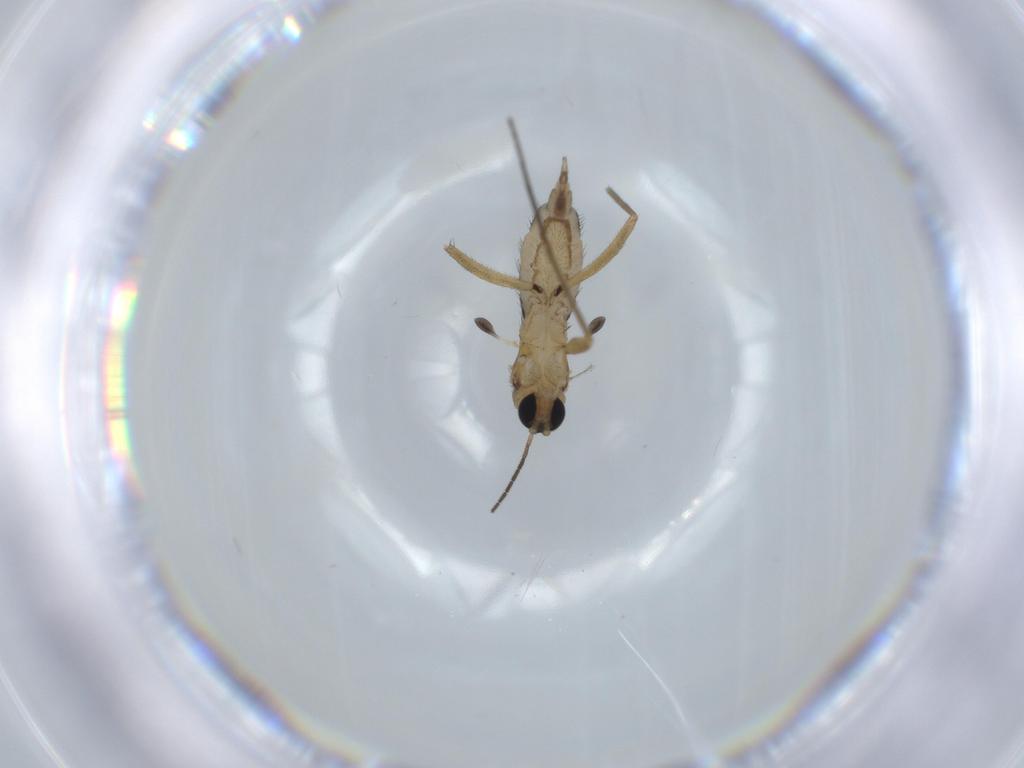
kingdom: Animalia
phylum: Arthropoda
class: Insecta
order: Diptera
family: Sciaridae
